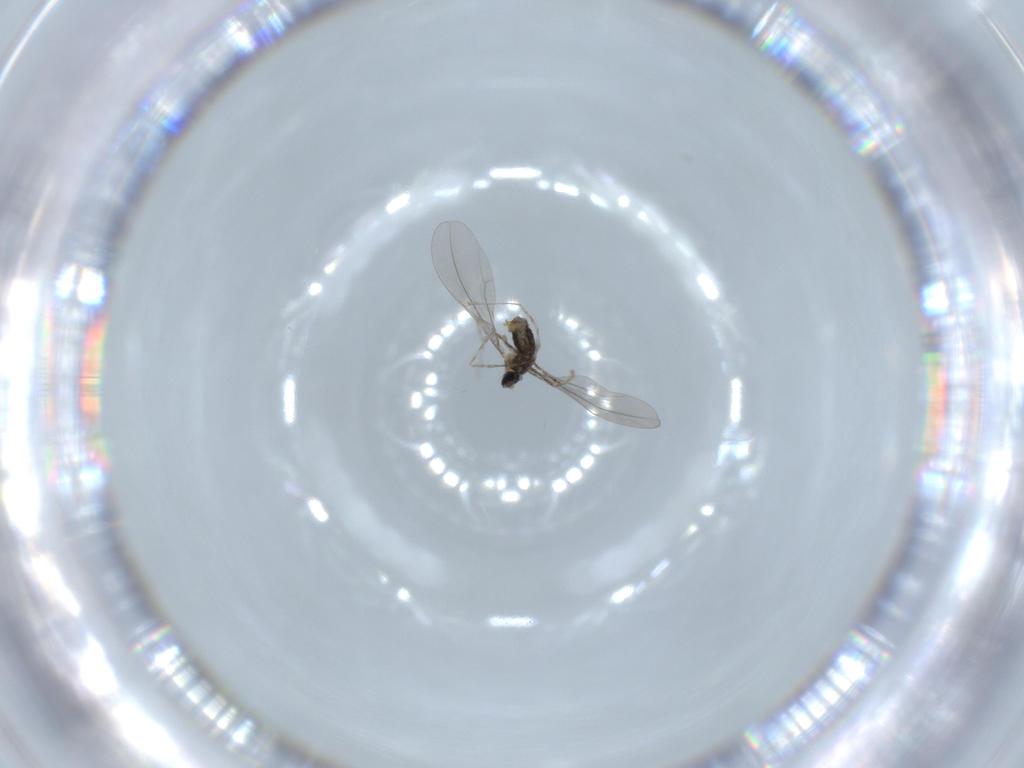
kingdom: Animalia
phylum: Arthropoda
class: Insecta
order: Diptera
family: Cecidomyiidae
